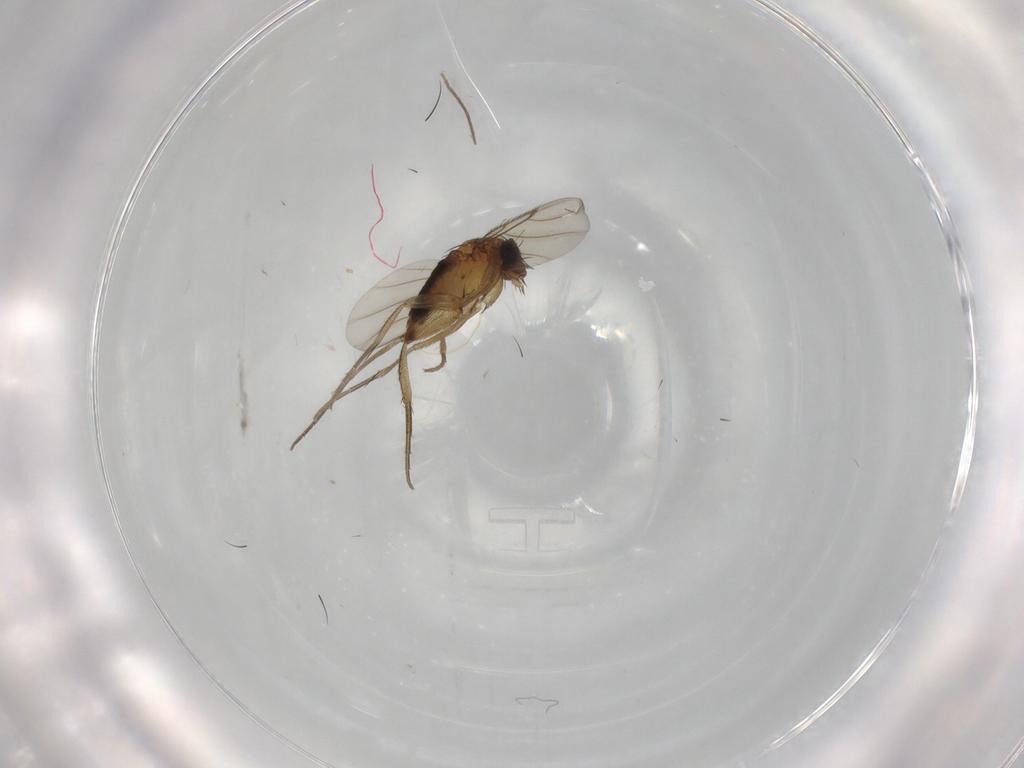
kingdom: Animalia
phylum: Arthropoda
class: Insecta
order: Diptera
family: Phoridae
